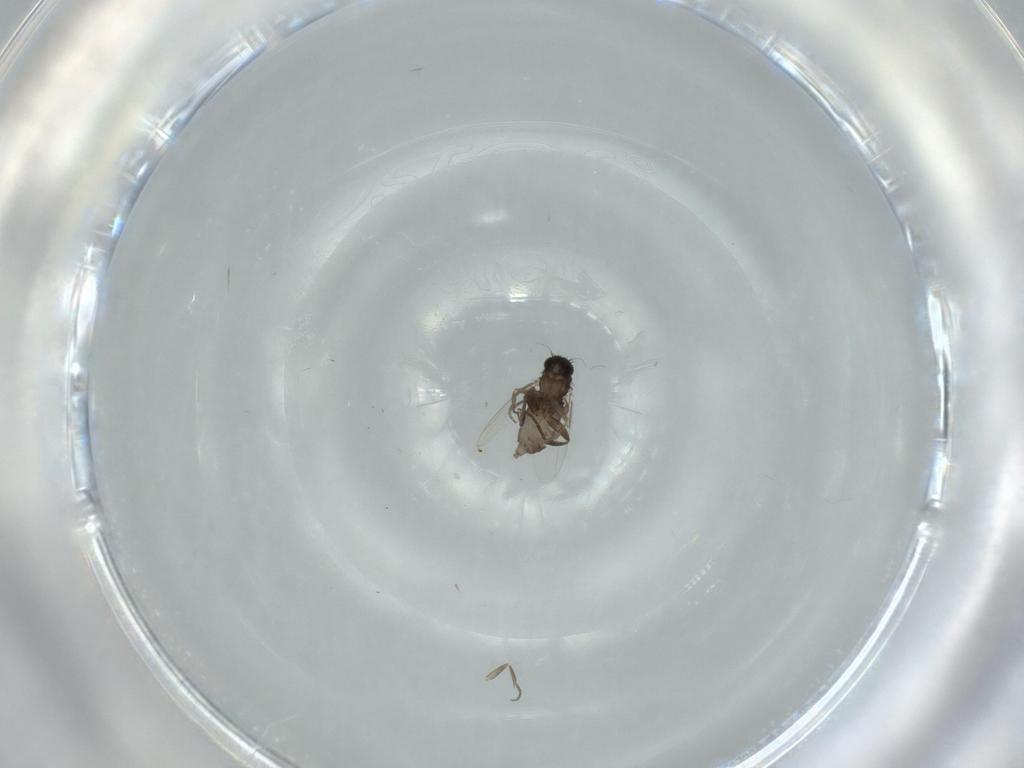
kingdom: Animalia
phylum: Arthropoda
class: Insecta
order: Diptera
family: Phoridae
